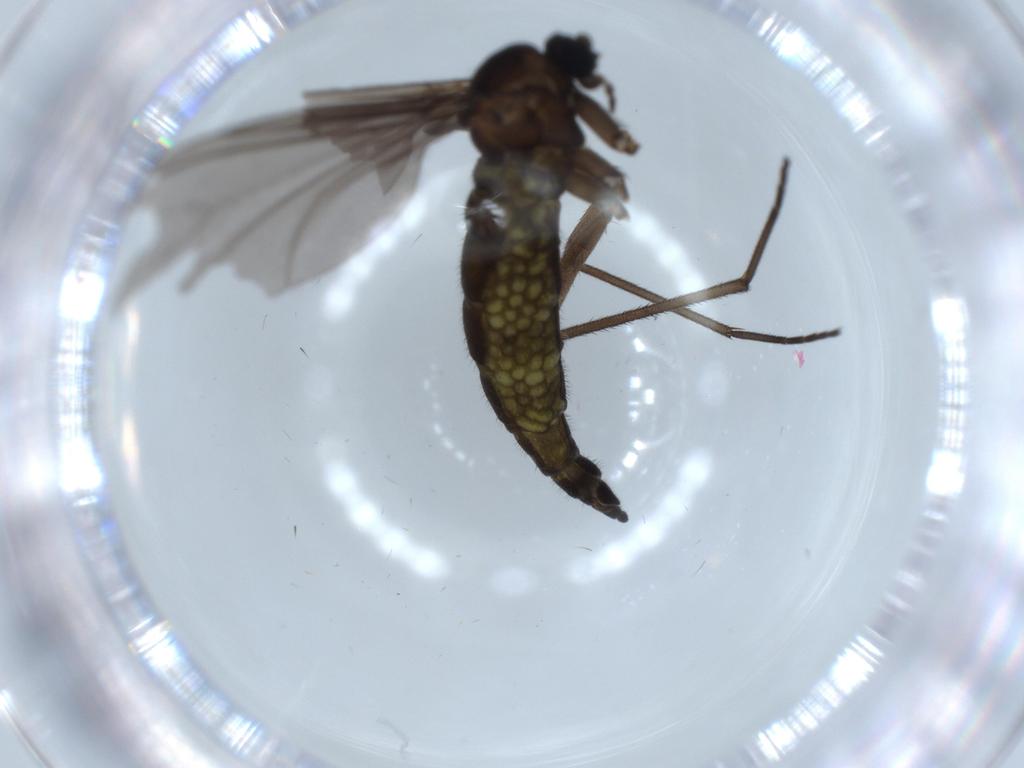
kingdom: Animalia
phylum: Arthropoda
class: Insecta
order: Diptera
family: Sciaridae
